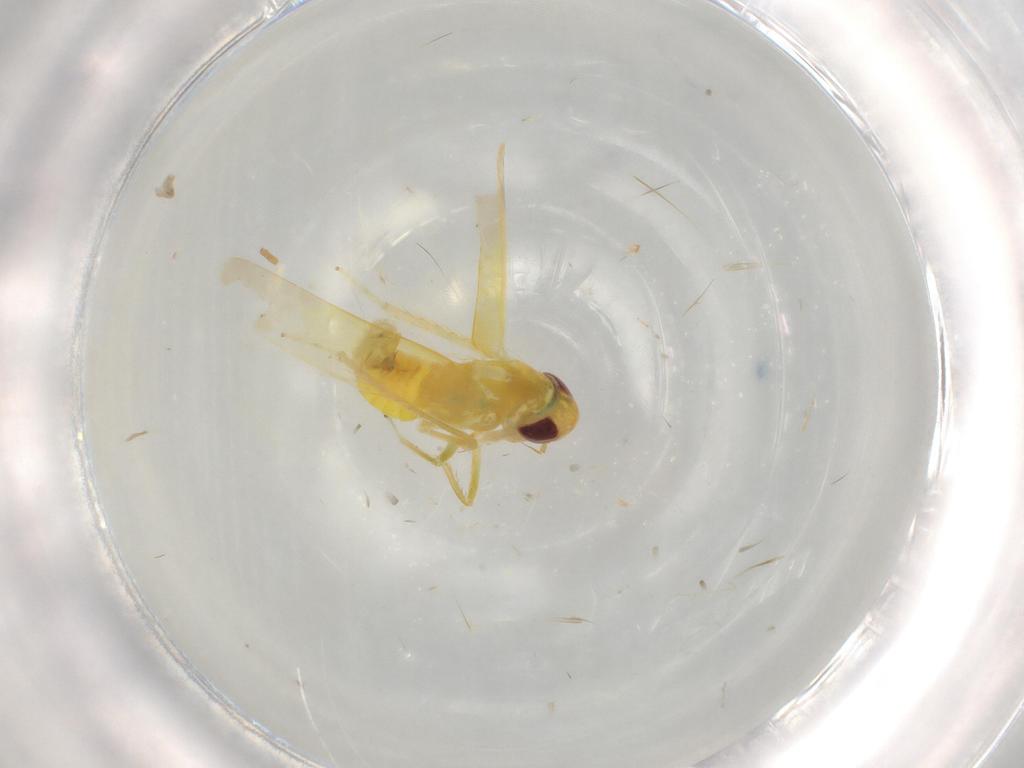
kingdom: Animalia
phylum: Arthropoda
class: Insecta
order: Hemiptera
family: Cicadellidae
